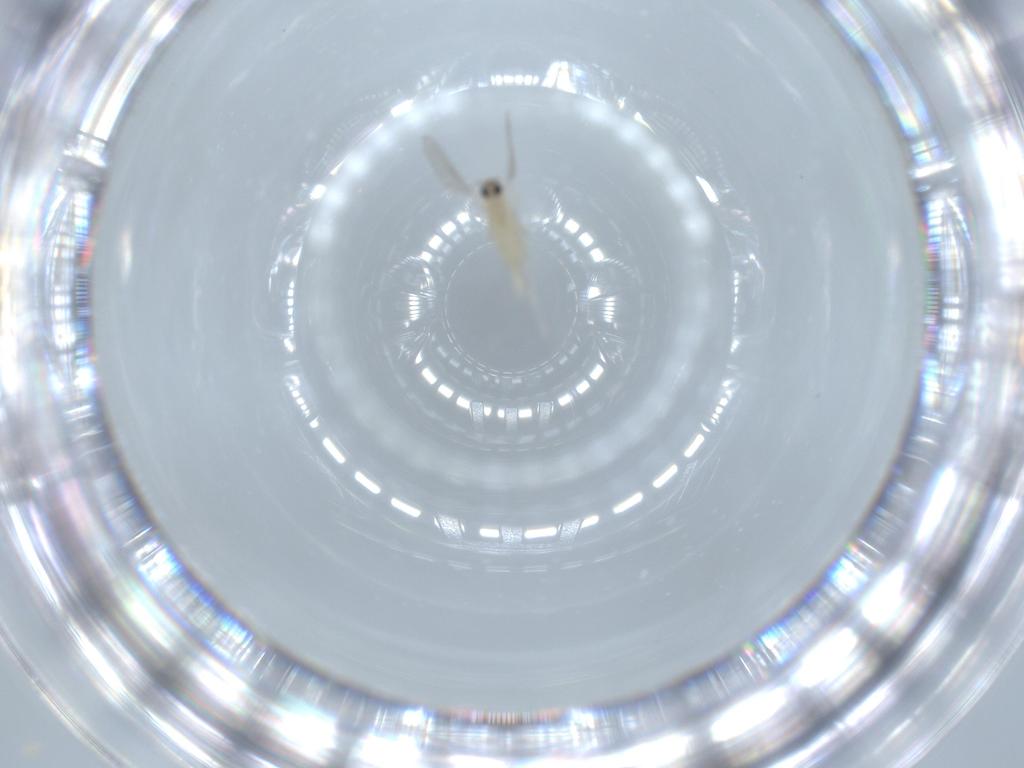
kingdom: Animalia
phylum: Arthropoda
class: Insecta
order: Diptera
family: Cecidomyiidae
